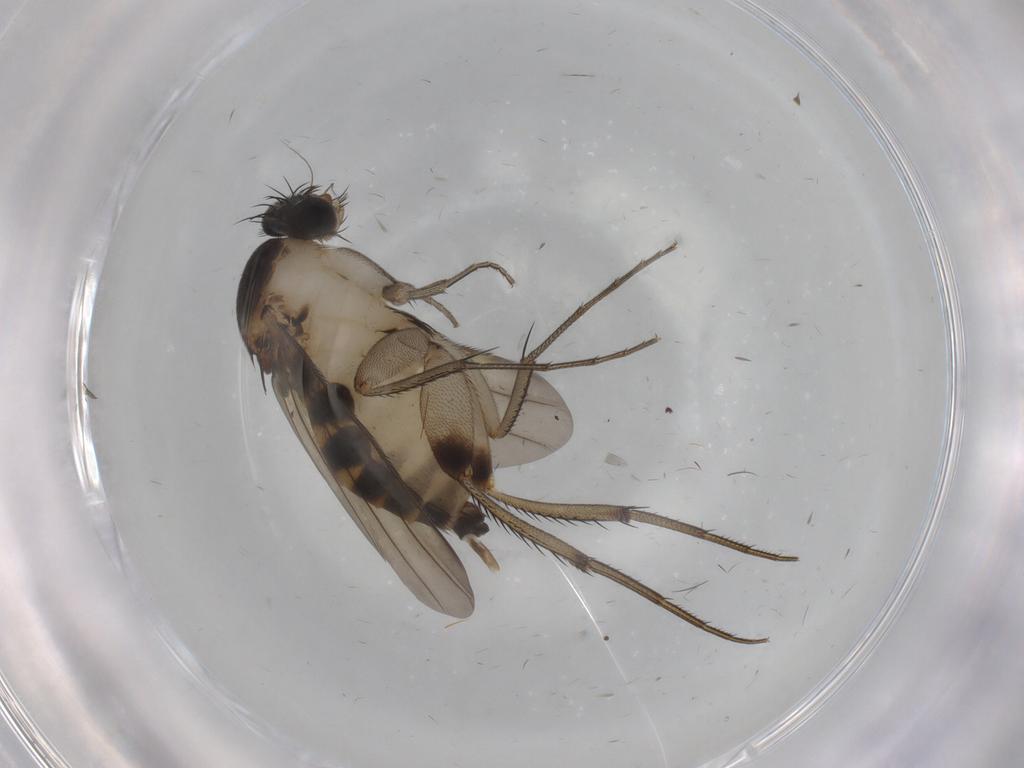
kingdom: Animalia
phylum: Arthropoda
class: Insecta
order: Diptera
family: Phoridae
